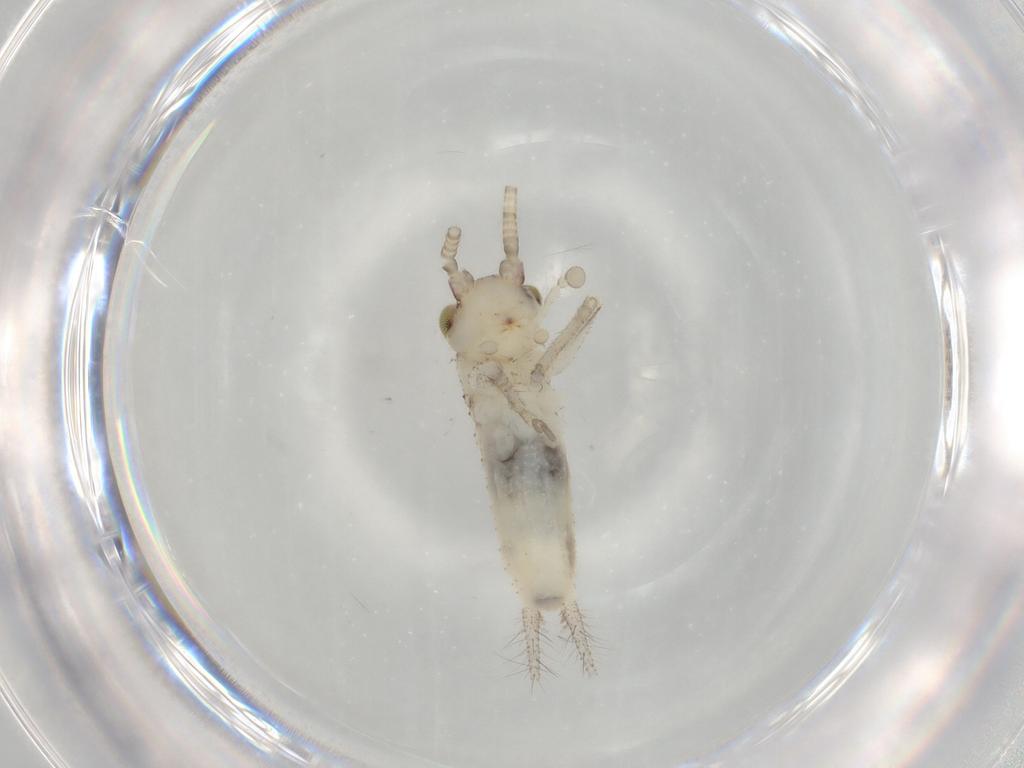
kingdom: Animalia
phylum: Arthropoda
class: Insecta
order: Orthoptera
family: Gryllidae
